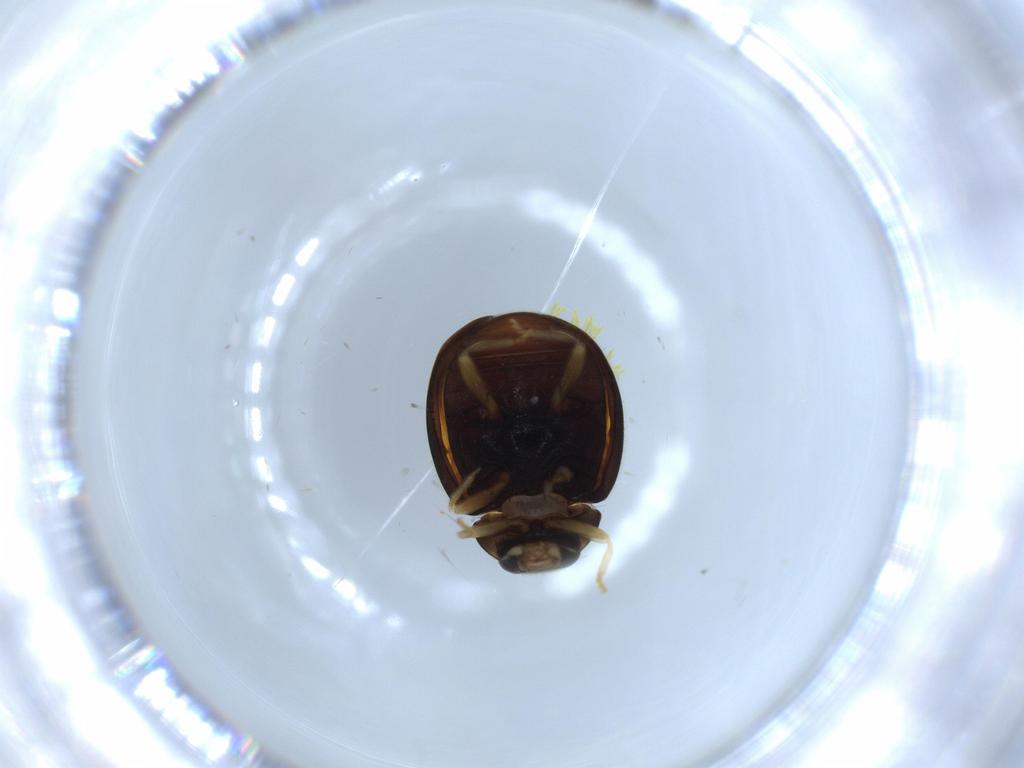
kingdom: Animalia
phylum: Arthropoda
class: Insecta
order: Coleoptera
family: Coccinellidae
